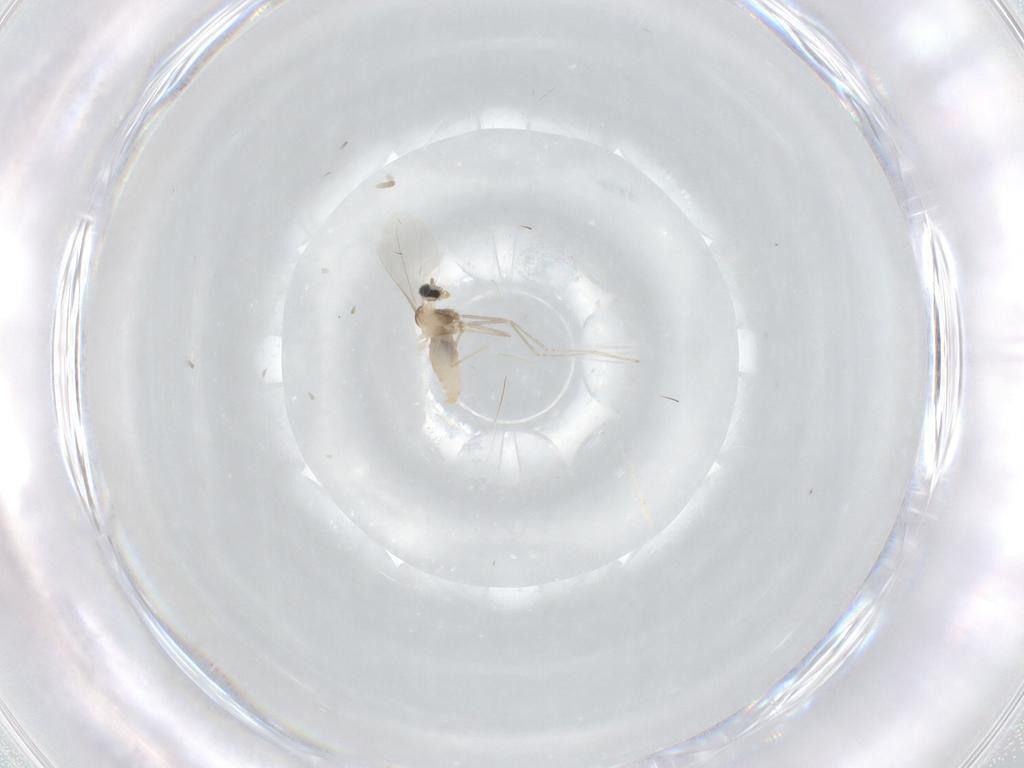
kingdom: Animalia
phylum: Arthropoda
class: Insecta
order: Diptera
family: Cecidomyiidae
